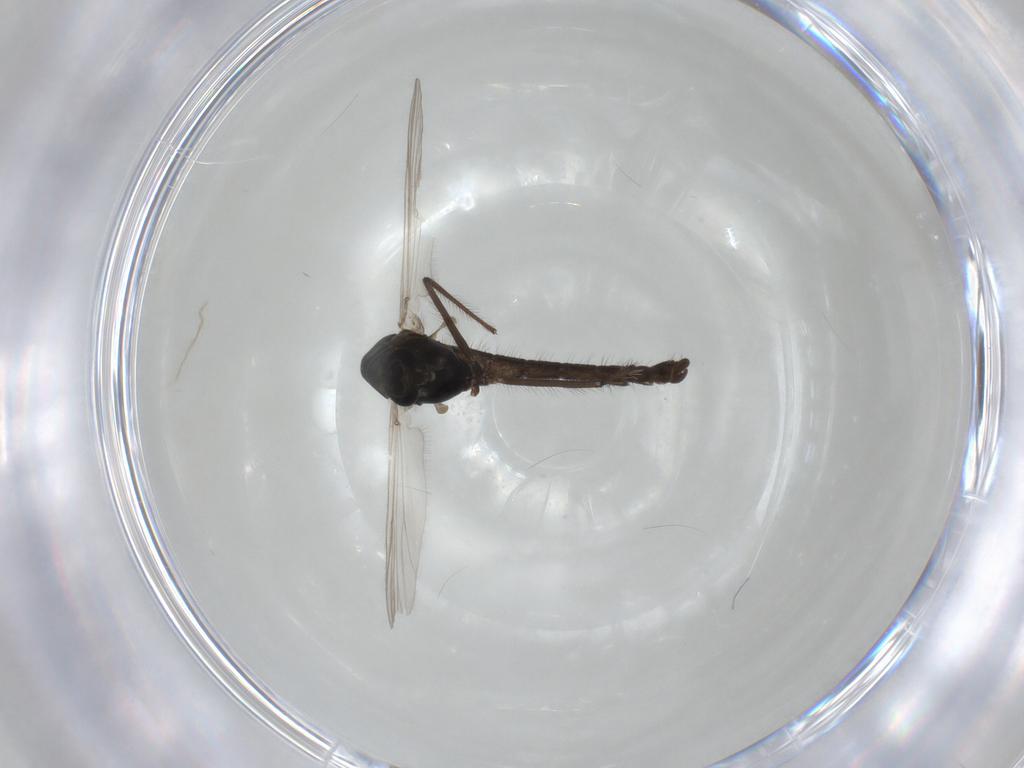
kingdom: Animalia
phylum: Arthropoda
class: Insecta
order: Diptera
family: Chironomidae
